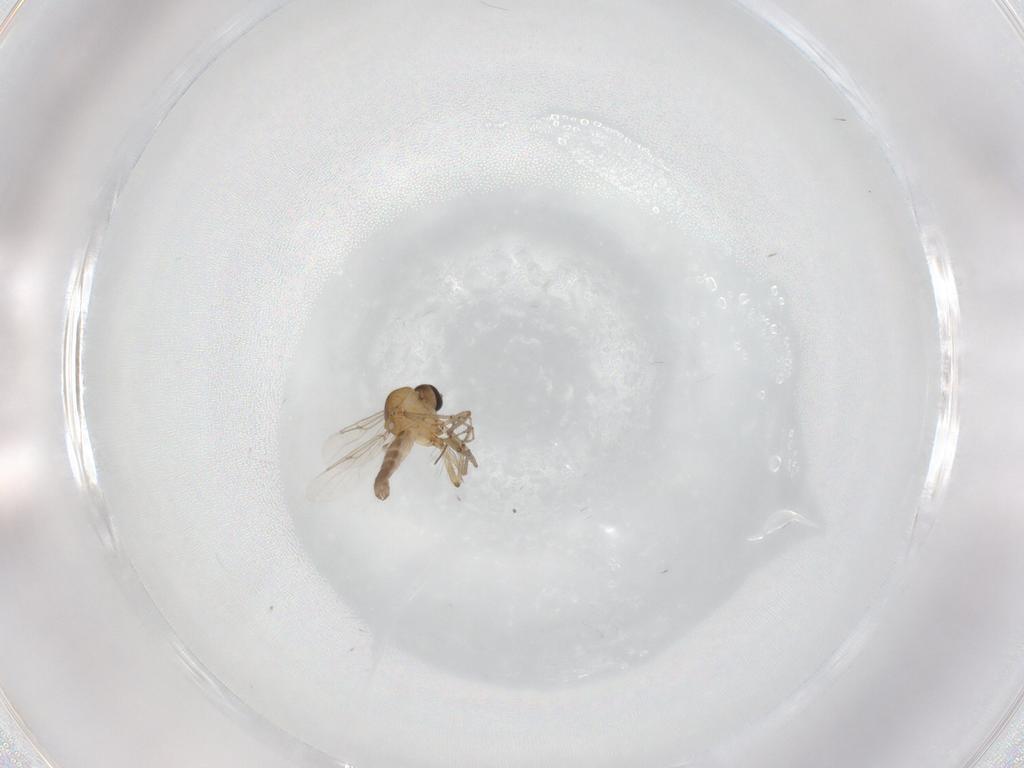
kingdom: Animalia
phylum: Arthropoda
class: Insecta
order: Diptera
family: Ceratopogonidae
